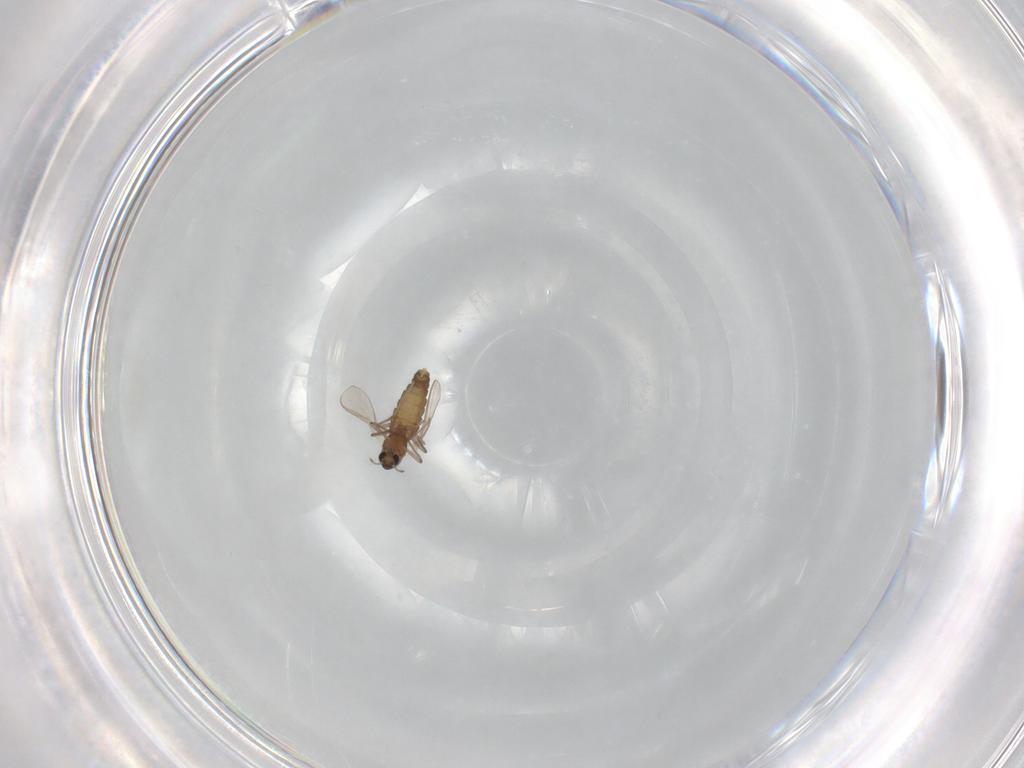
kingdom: Animalia
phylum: Arthropoda
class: Insecta
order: Diptera
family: Chironomidae
